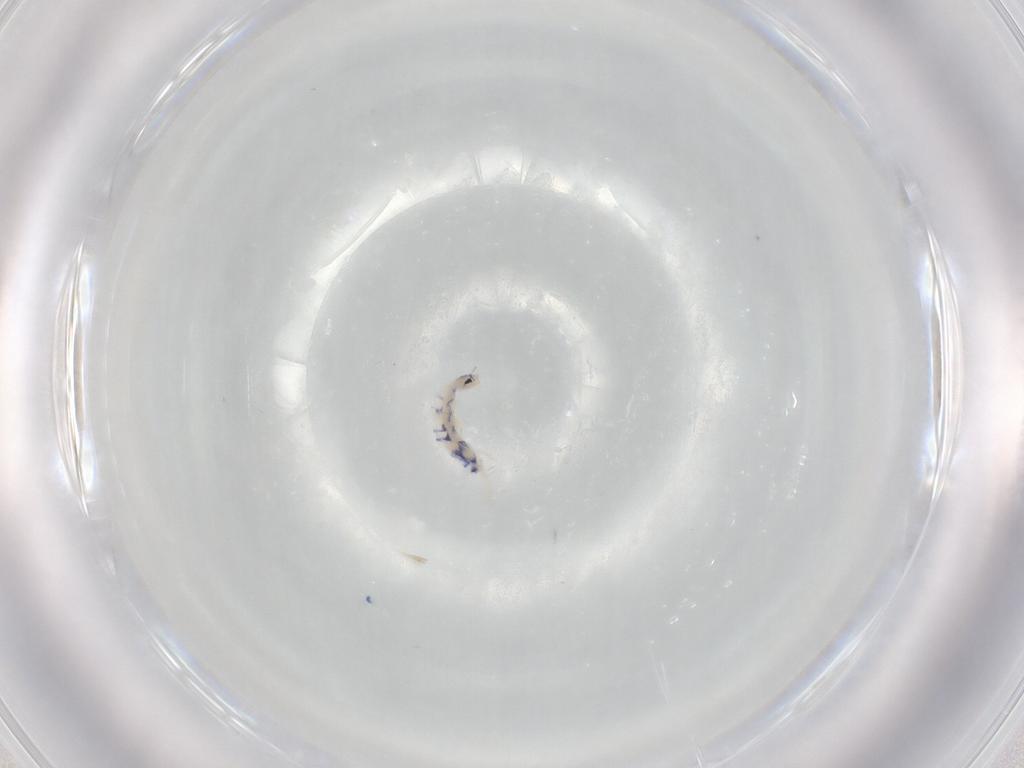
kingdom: Animalia
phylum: Arthropoda
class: Collembola
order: Entomobryomorpha
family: Entomobryidae
